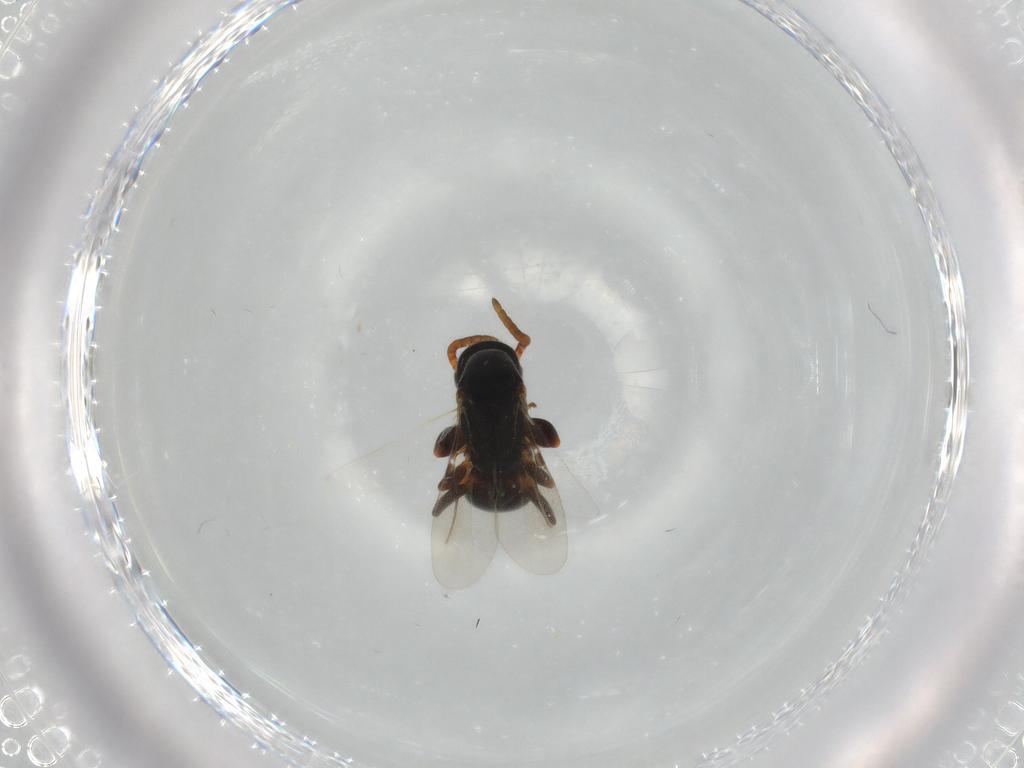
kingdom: Animalia
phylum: Arthropoda
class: Insecta
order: Hymenoptera
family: Bethylidae
